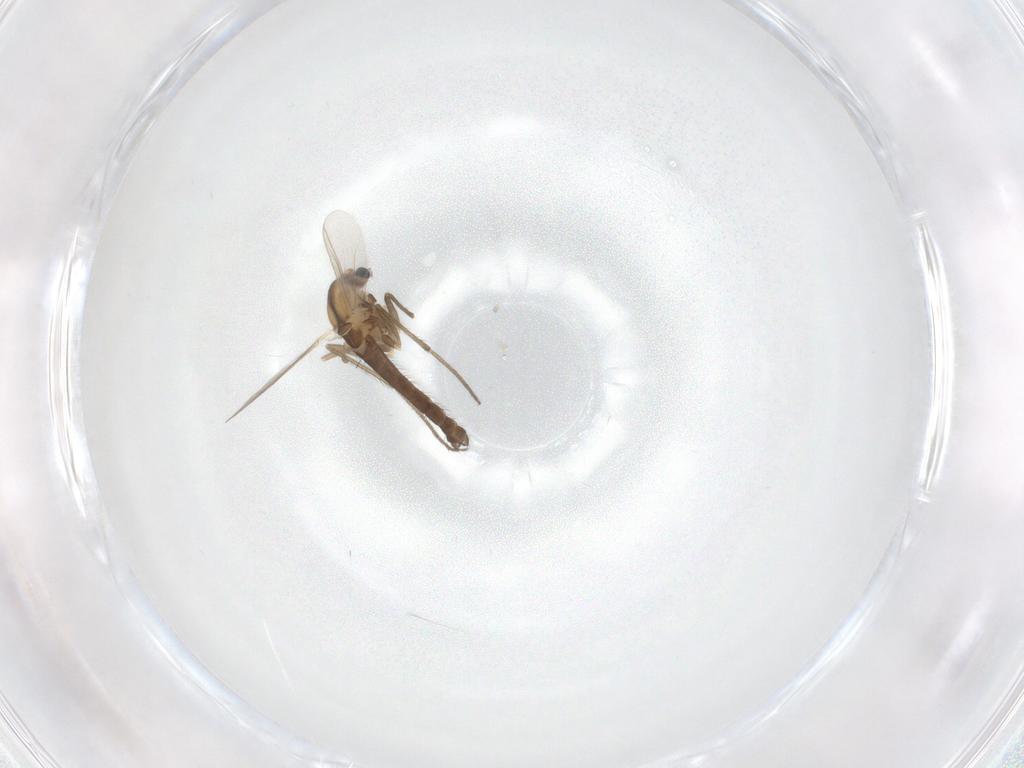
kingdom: Animalia
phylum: Arthropoda
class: Insecta
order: Diptera
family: Chironomidae
